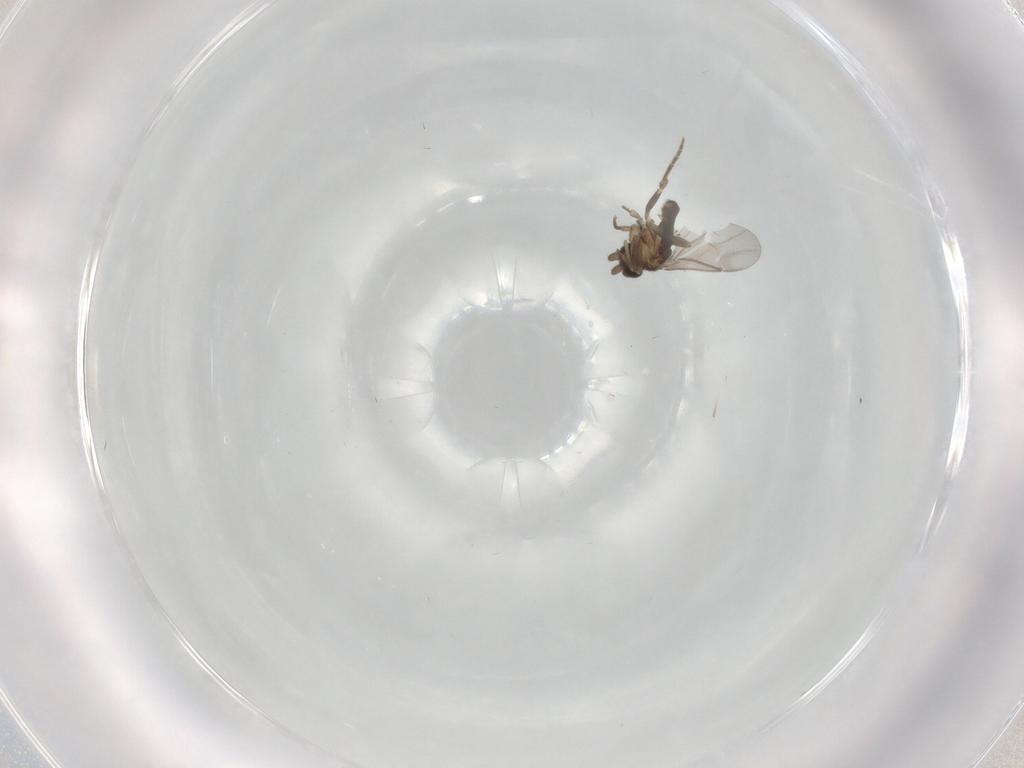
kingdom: Animalia
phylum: Arthropoda
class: Insecta
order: Diptera
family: Phoridae
